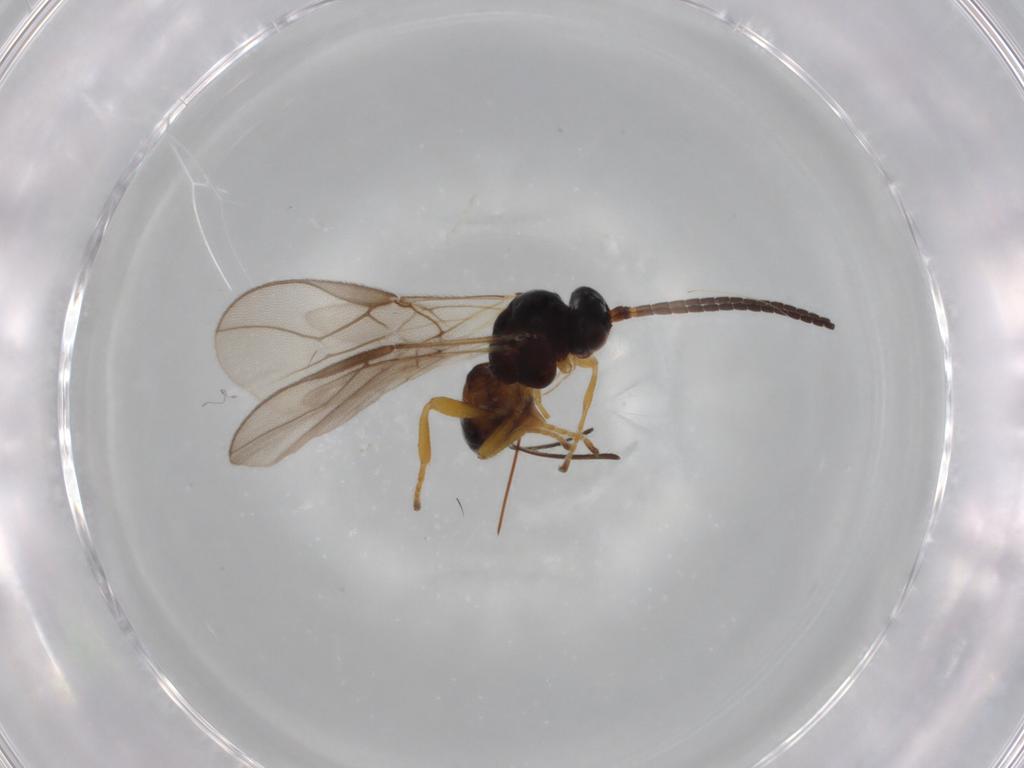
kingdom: Animalia
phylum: Arthropoda
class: Insecta
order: Hymenoptera
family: Braconidae
